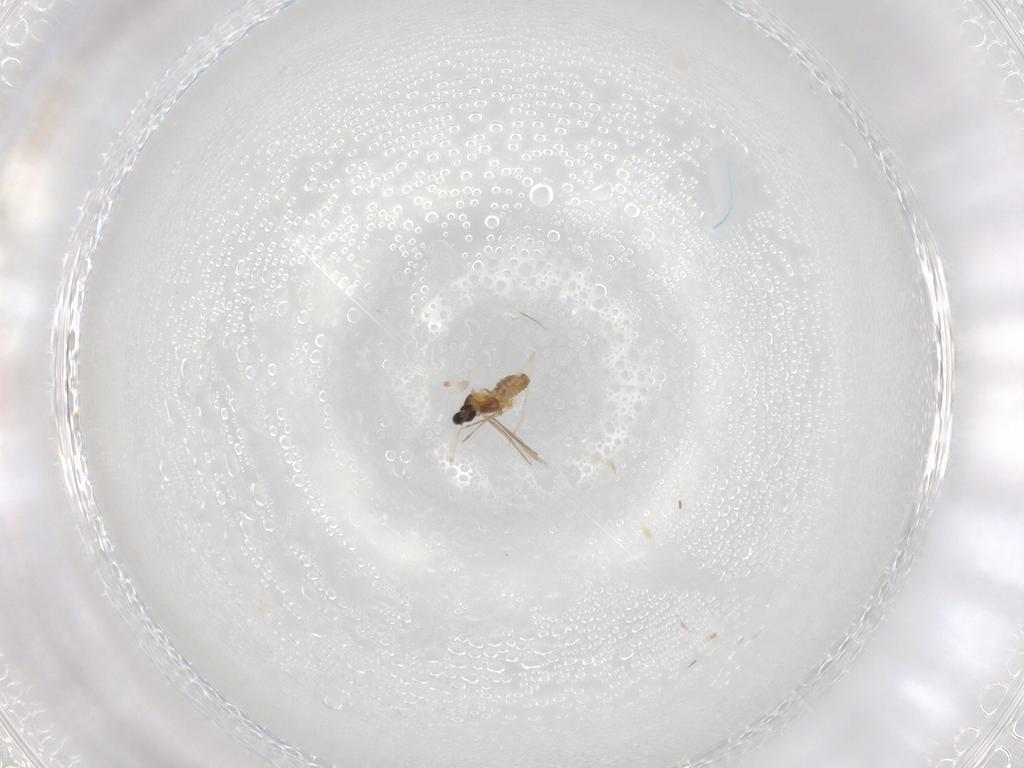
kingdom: Animalia
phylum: Arthropoda
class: Insecta
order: Diptera
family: Cecidomyiidae
